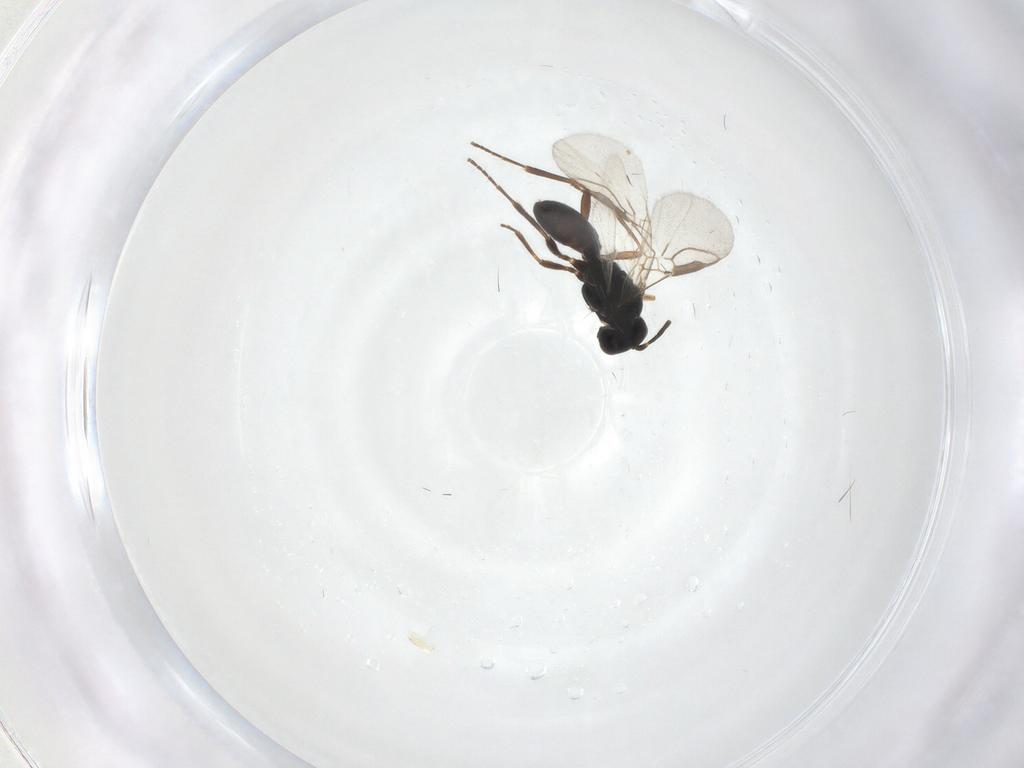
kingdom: Animalia
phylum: Arthropoda
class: Insecta
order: Hymenoptera
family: Braconidae
